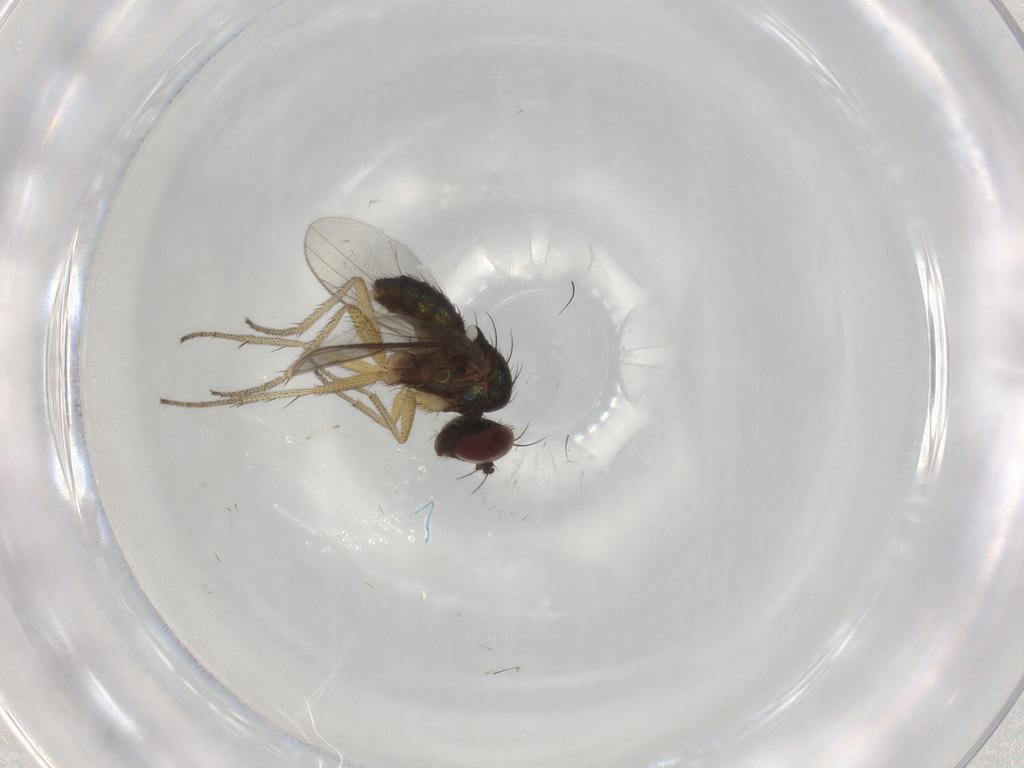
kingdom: Animalia
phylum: Arthropoda
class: Insecta
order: Diptera
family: Dolichopodidae
